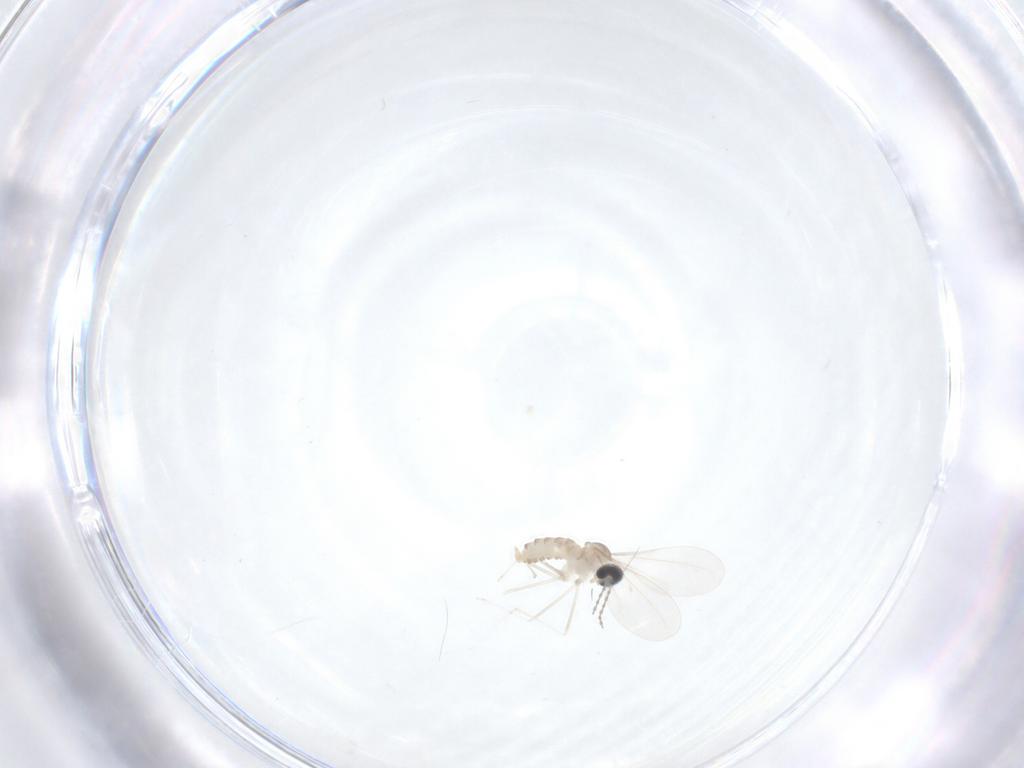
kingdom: Animalia
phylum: Arthropoda
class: Insecta
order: Diptera
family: Cecidomyiidae
